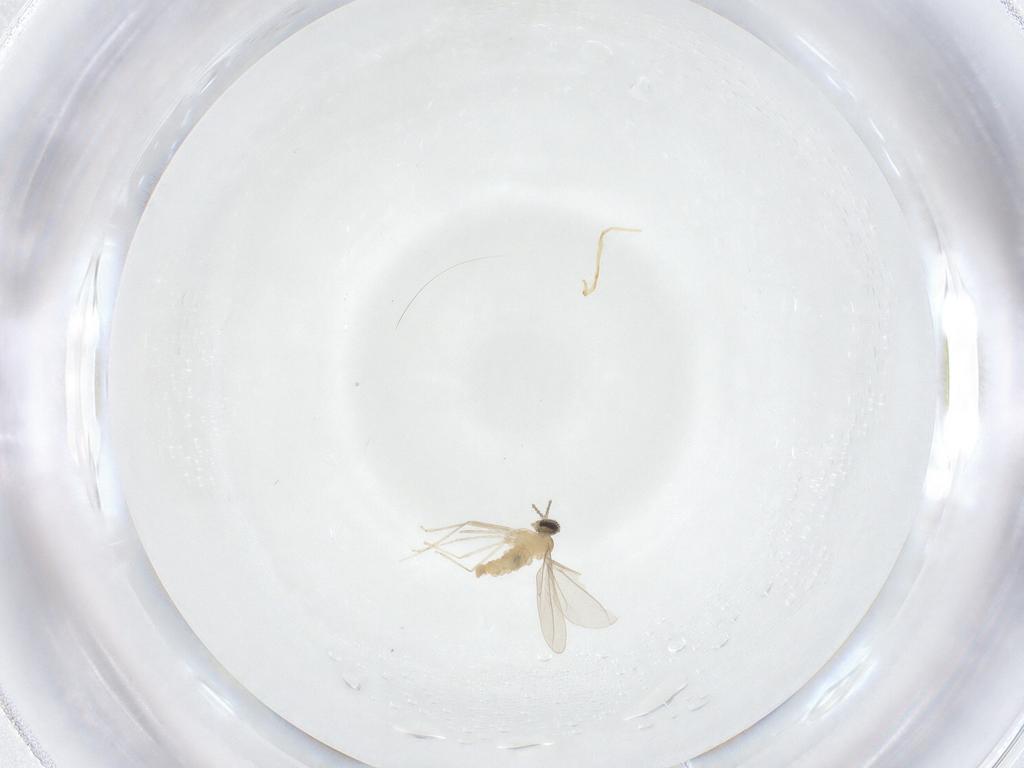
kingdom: Animalia
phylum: Arthropoda
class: Insecta
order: Diptera
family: Cecidomyiidae
